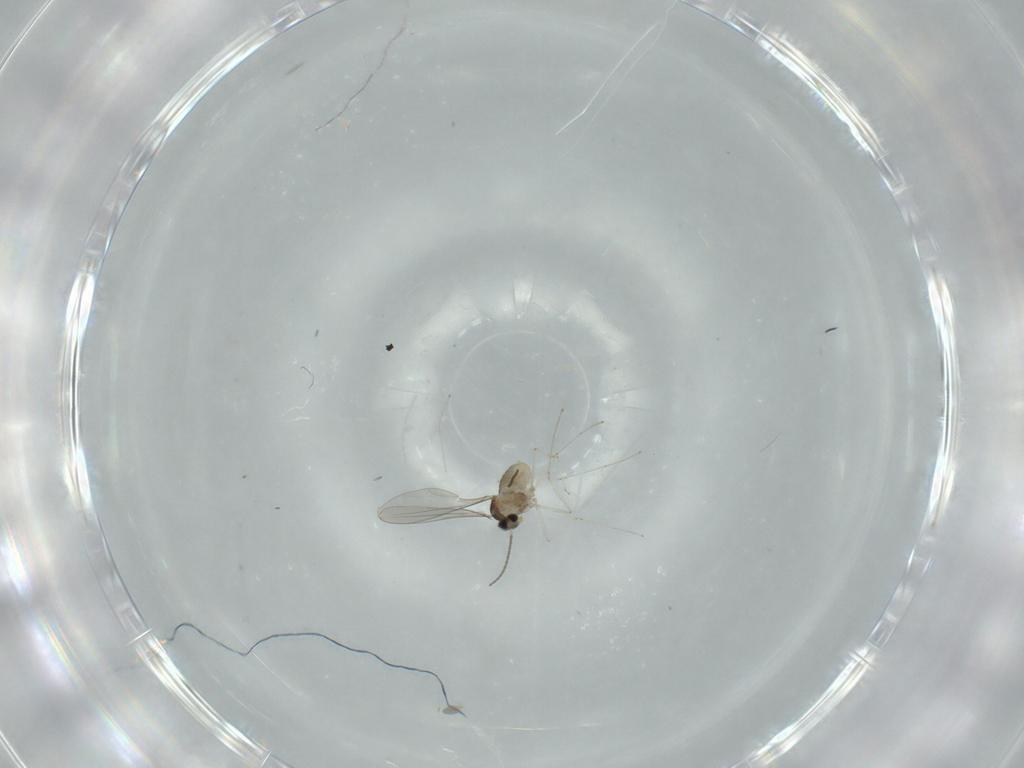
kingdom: Animalia
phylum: Arthropoda
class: Insecta
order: Diptera
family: Cecidomyiidae
